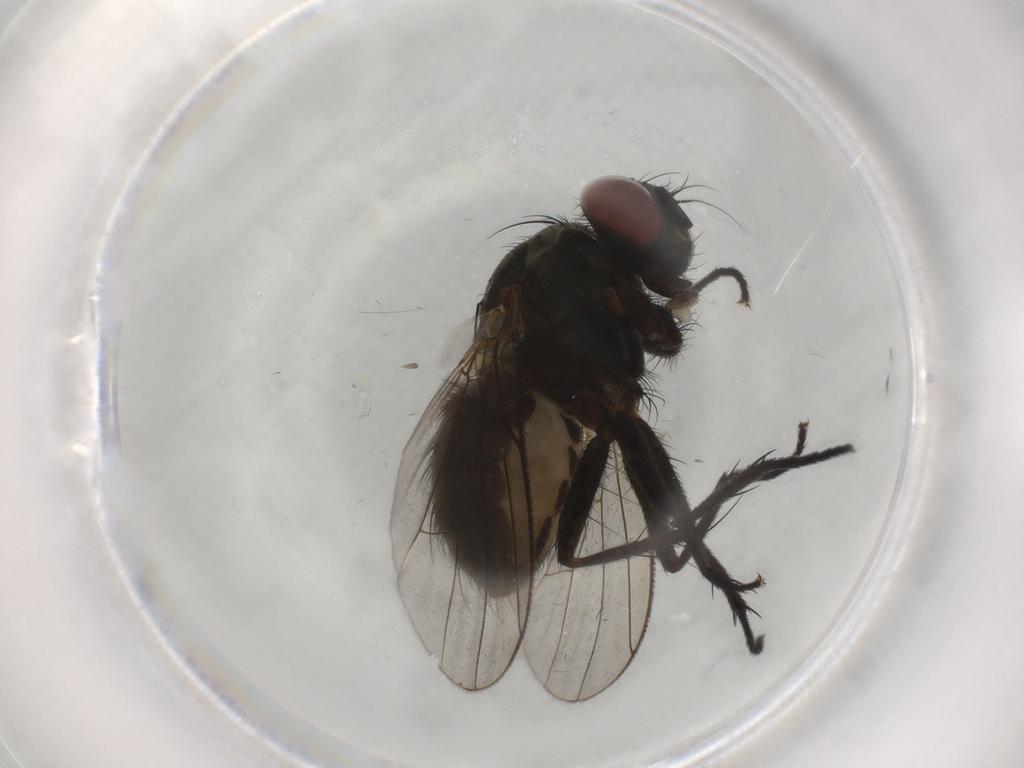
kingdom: Animalia
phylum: Arthropoda
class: Insecta
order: Diptera
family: Muscidae
